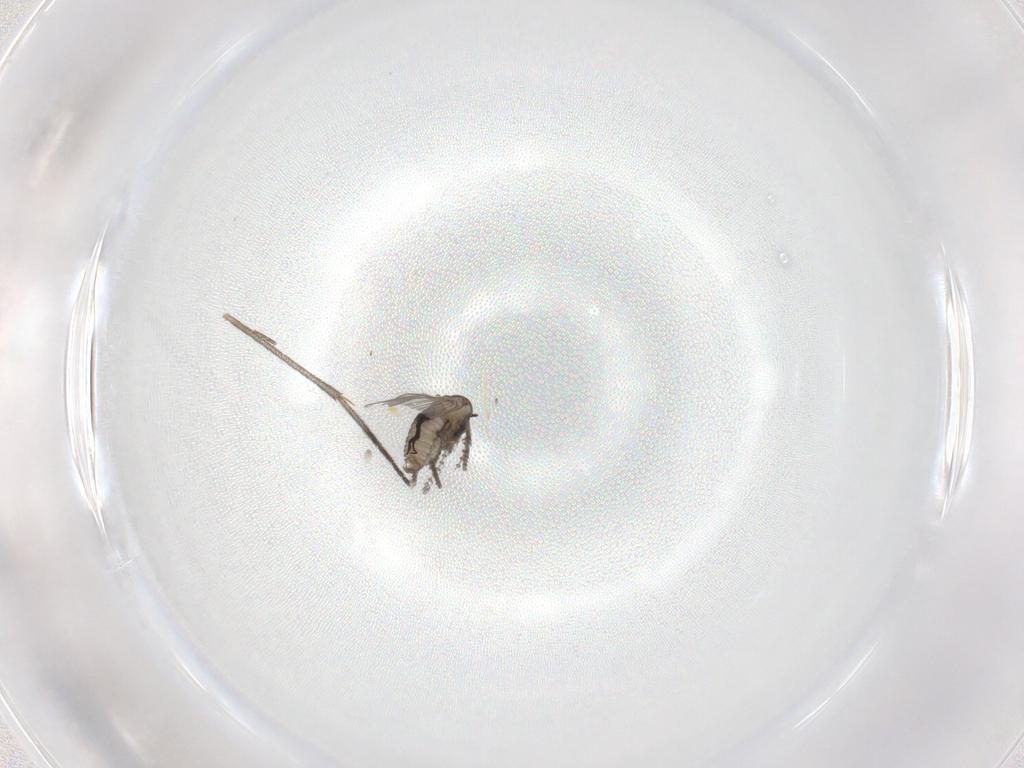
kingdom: Animalia
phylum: Arthropoda
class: Insecta
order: Diptera
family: Psychodidae
